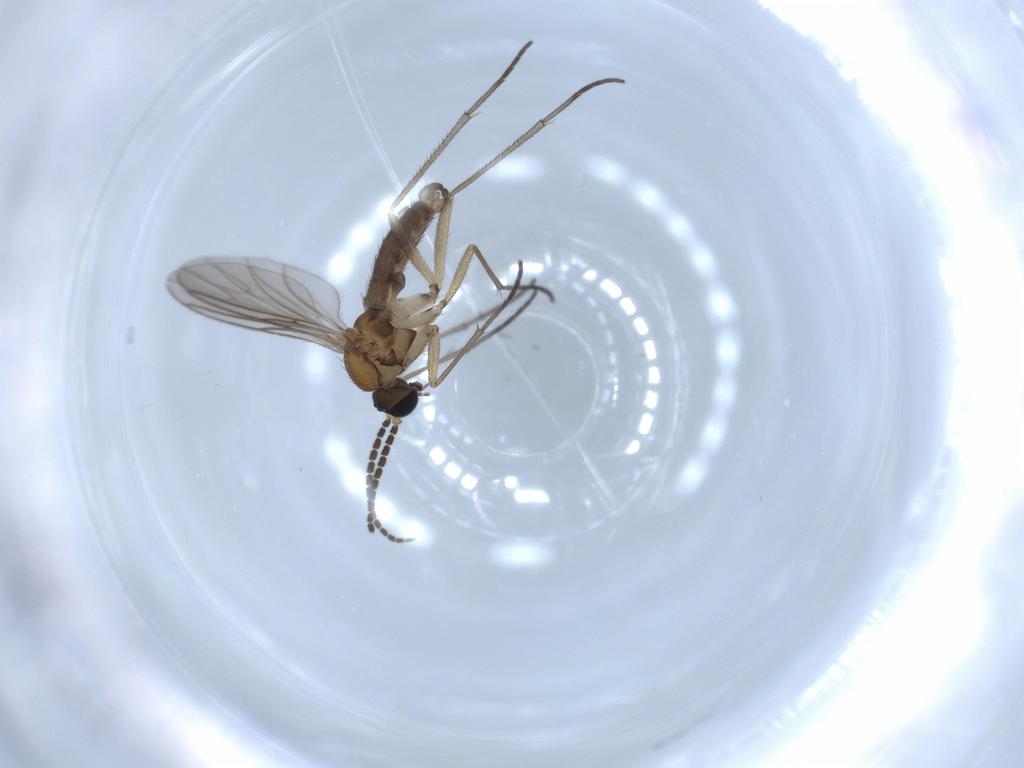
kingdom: Animalia
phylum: Arthropoda
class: Insecta
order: Diptera
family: Sciaridae
